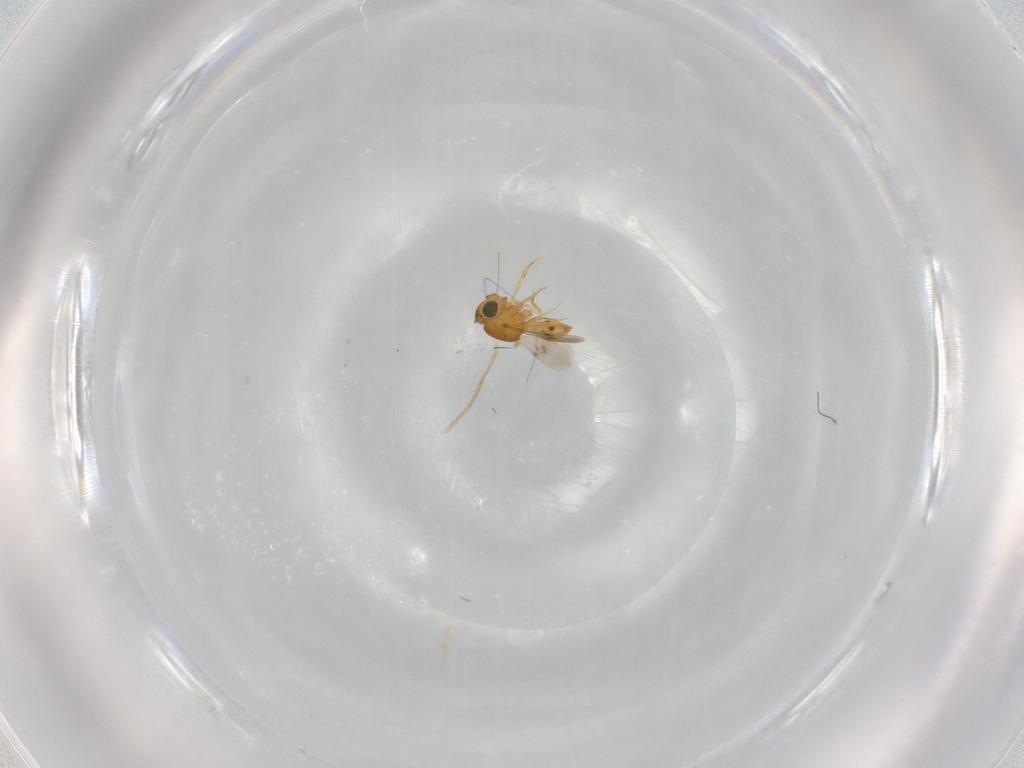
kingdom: Animalia
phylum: Arthropoda
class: Insecta
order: Hymenoptera
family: Scelionidae
